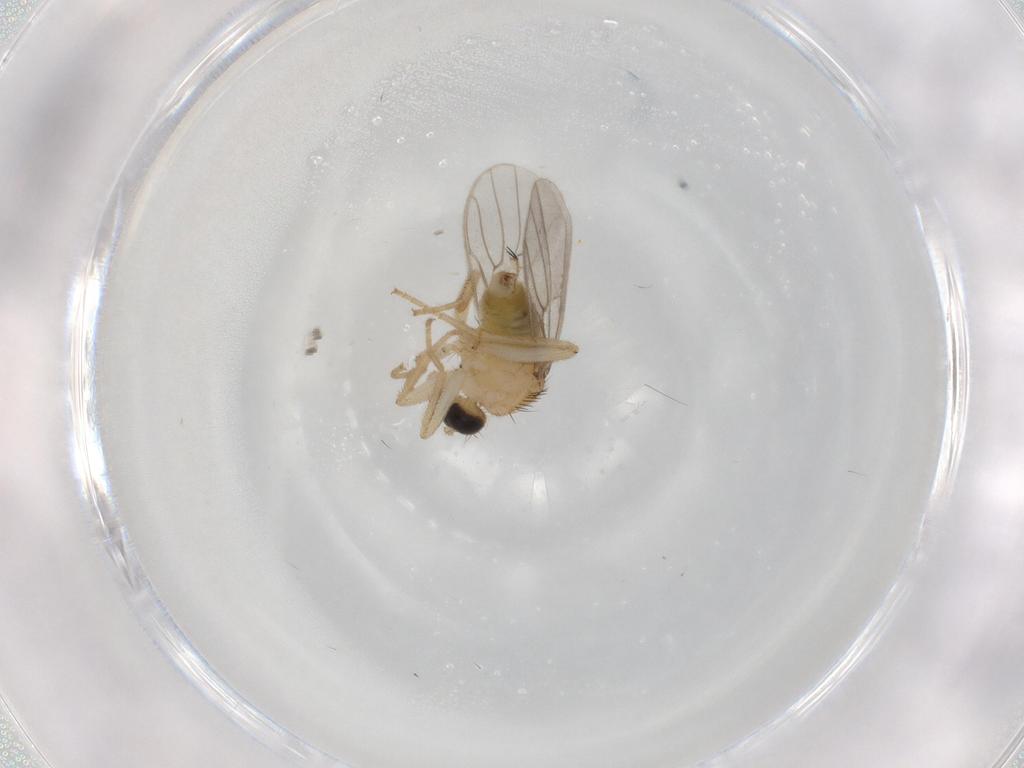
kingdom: Animalia
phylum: Arthropoda
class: Insecta
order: Diptera
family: Hybotidae
